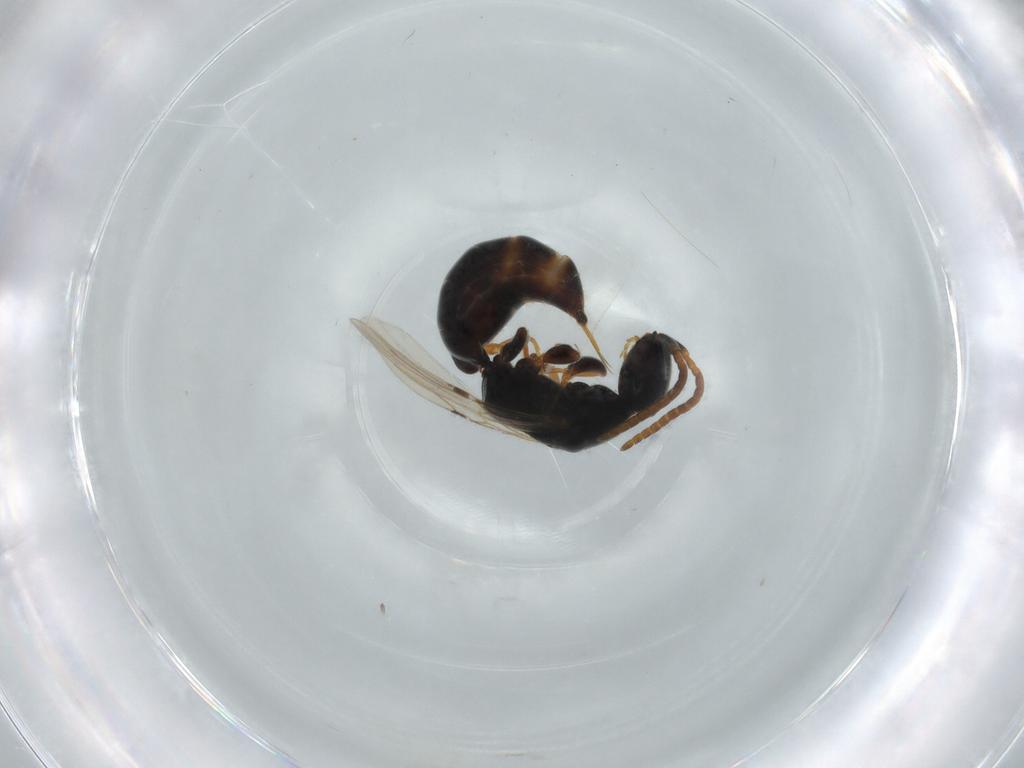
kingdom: Animalia
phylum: Arthropoda
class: Insecta
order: Hymenoptera
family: Bethylidae
